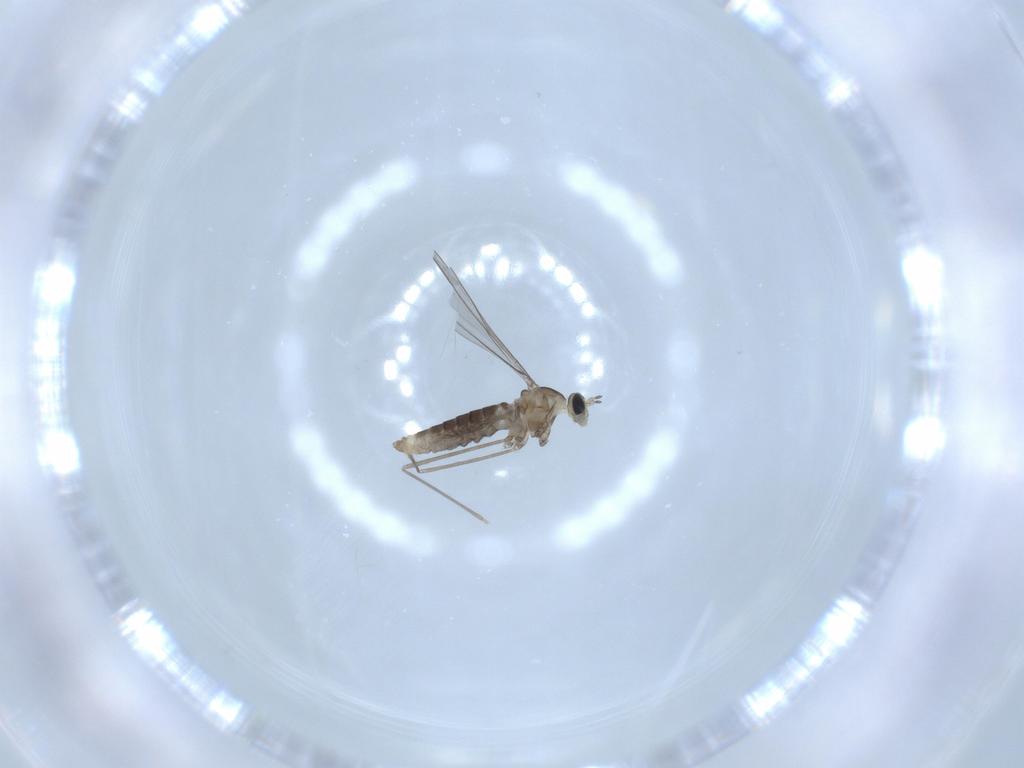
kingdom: Animalia
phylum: Arthropoda
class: Insecta
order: Diptera
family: Cecidomyiidae
